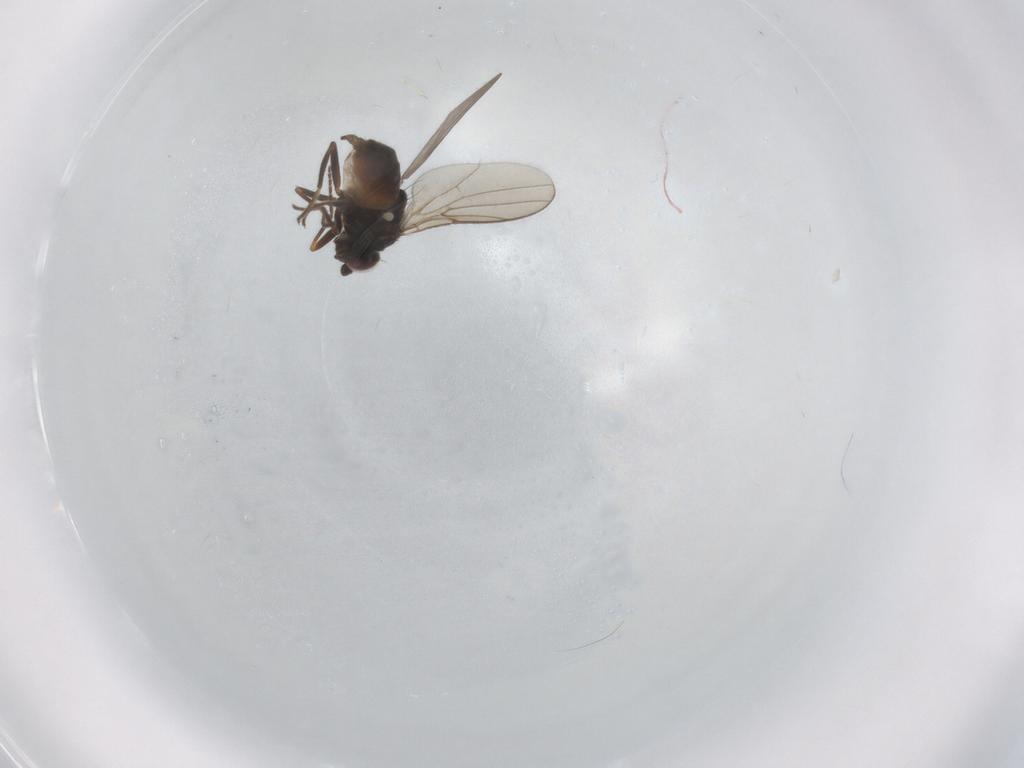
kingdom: Animalia
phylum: Arthropoda
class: Insecta
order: Diptera
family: Chloropidae
